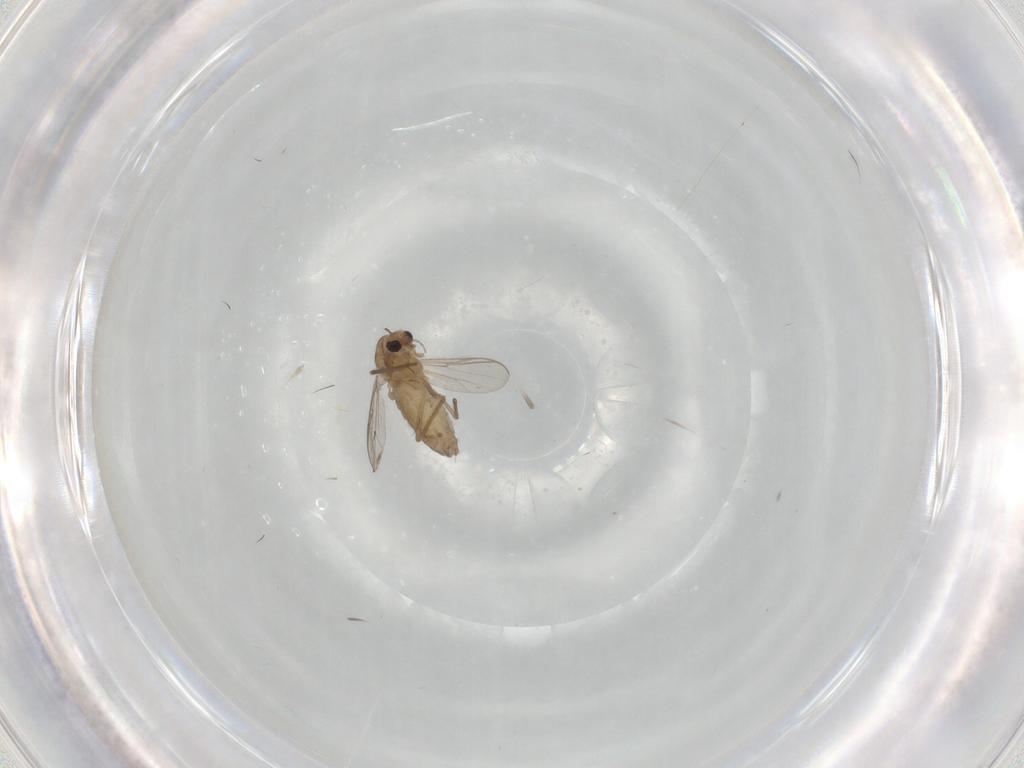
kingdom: Animalia
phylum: Arthropoda
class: Insecta
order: Diptera
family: Chironomidae
